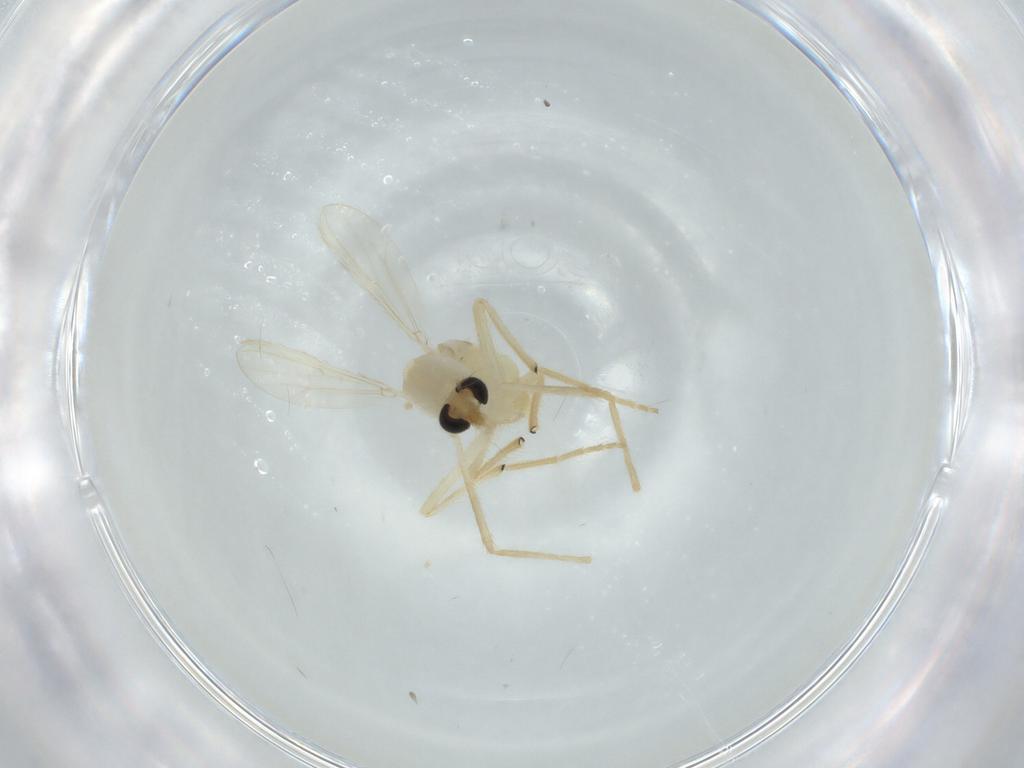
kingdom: Animalia
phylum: Arthropoda
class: Insecta
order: Diptera
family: Chironomidae
